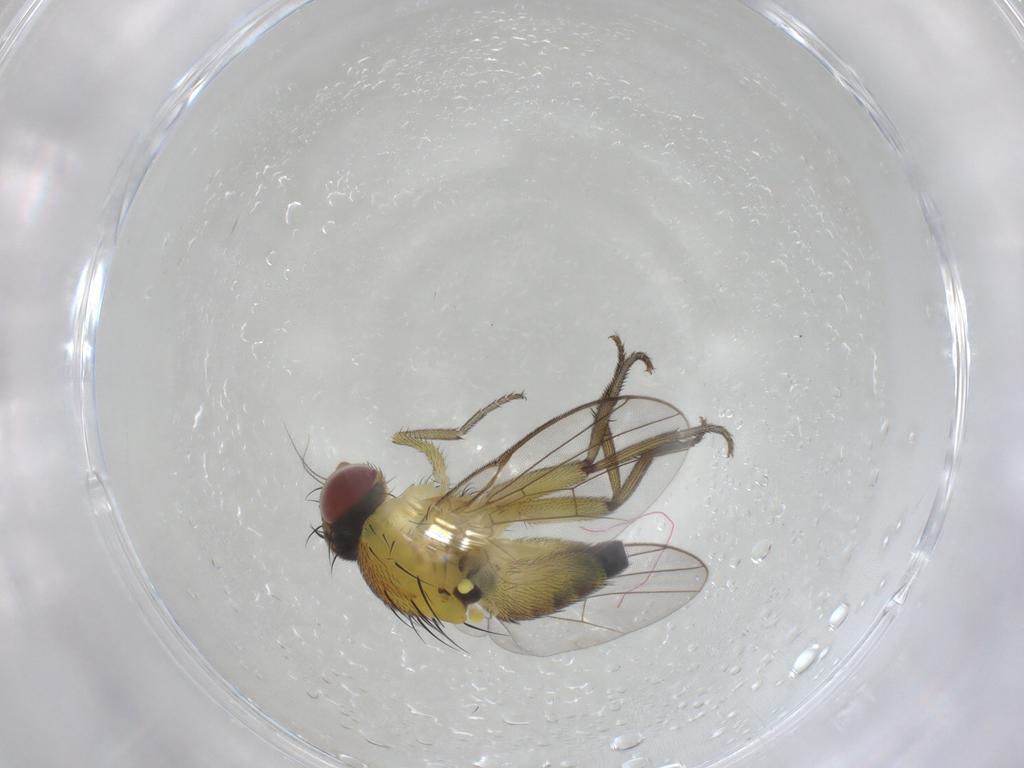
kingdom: Animalia
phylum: Arthropoda
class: Insecta
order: Diptera
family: Agromyzidae
